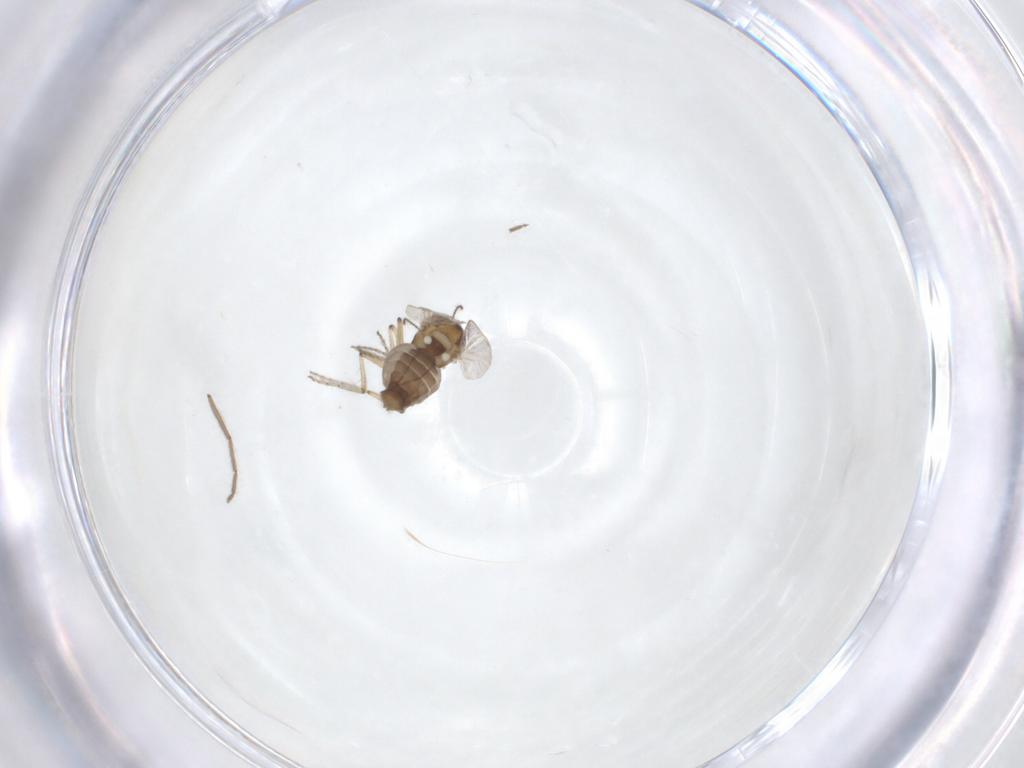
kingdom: Animalia
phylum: Arthropoda
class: Insecta
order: Diptera
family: Ceratopogonidae
